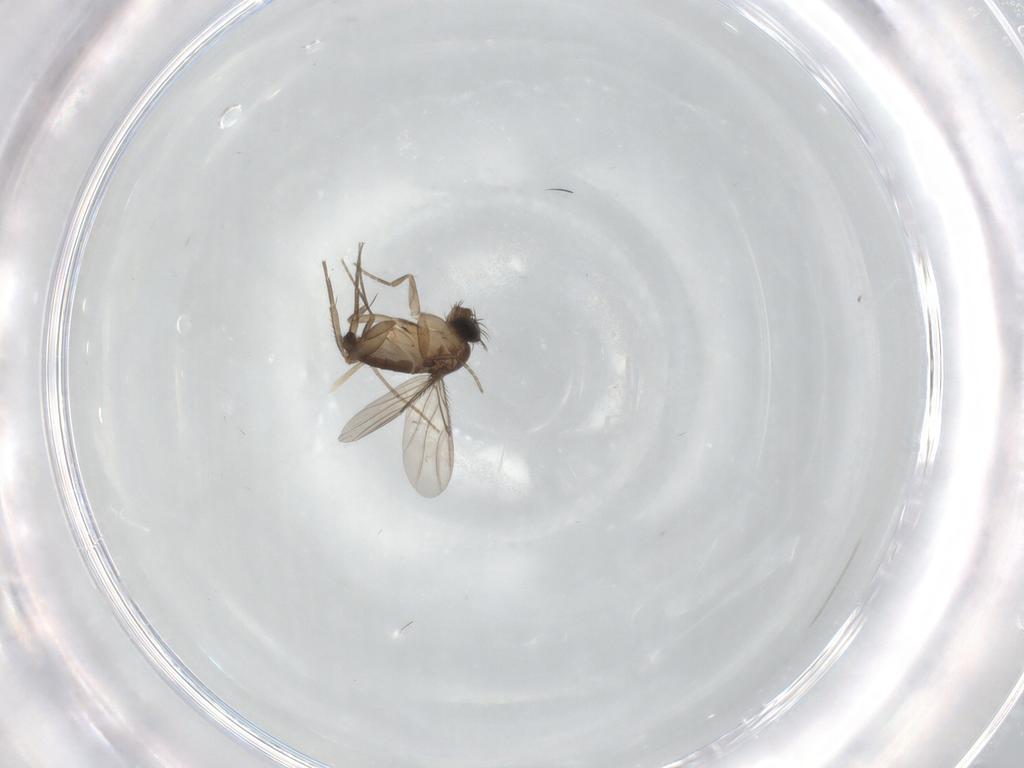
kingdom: Animalia
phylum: Arthropoda
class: Insecta
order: Diptera
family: Phoridae
